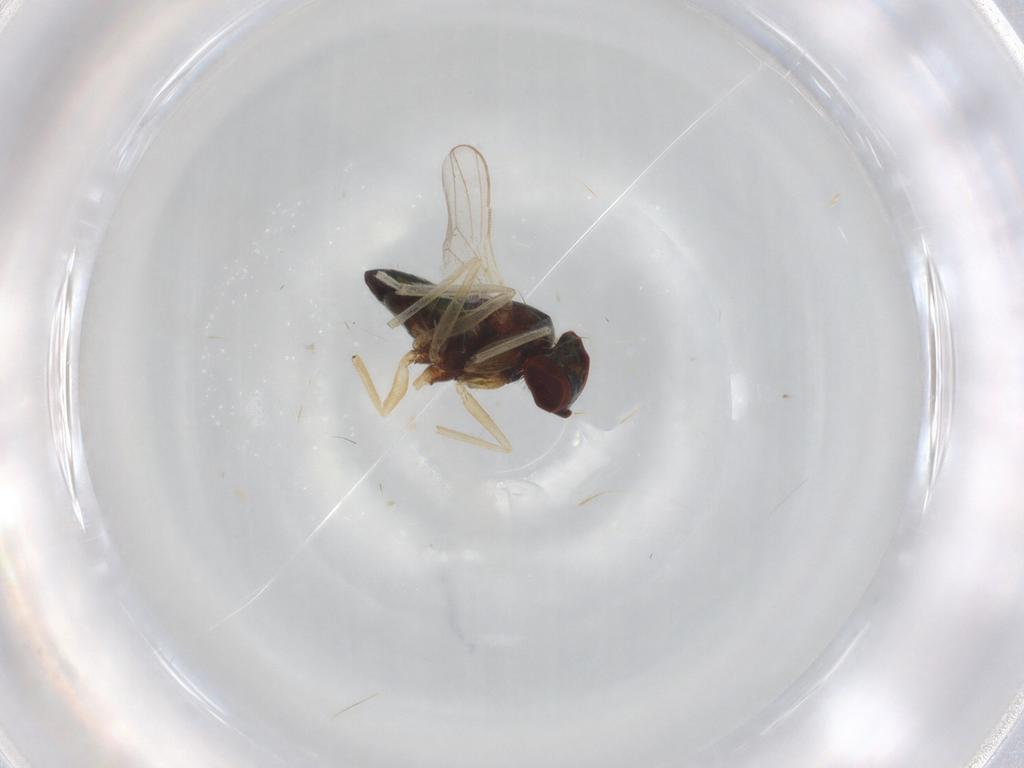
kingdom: Animalia
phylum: Arthropoda
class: Insecta
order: Diptera
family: Dolichopodidae
